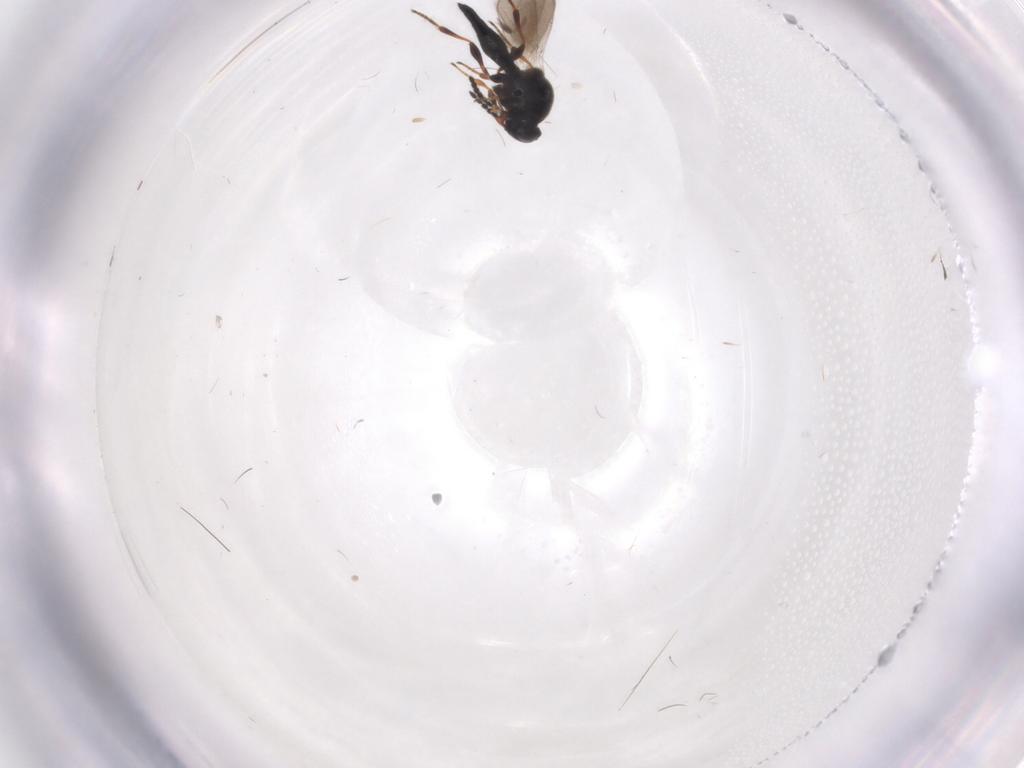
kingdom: Animalia
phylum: Arthropoda
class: Insecta
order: Hymenoptera
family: Platygastridae
